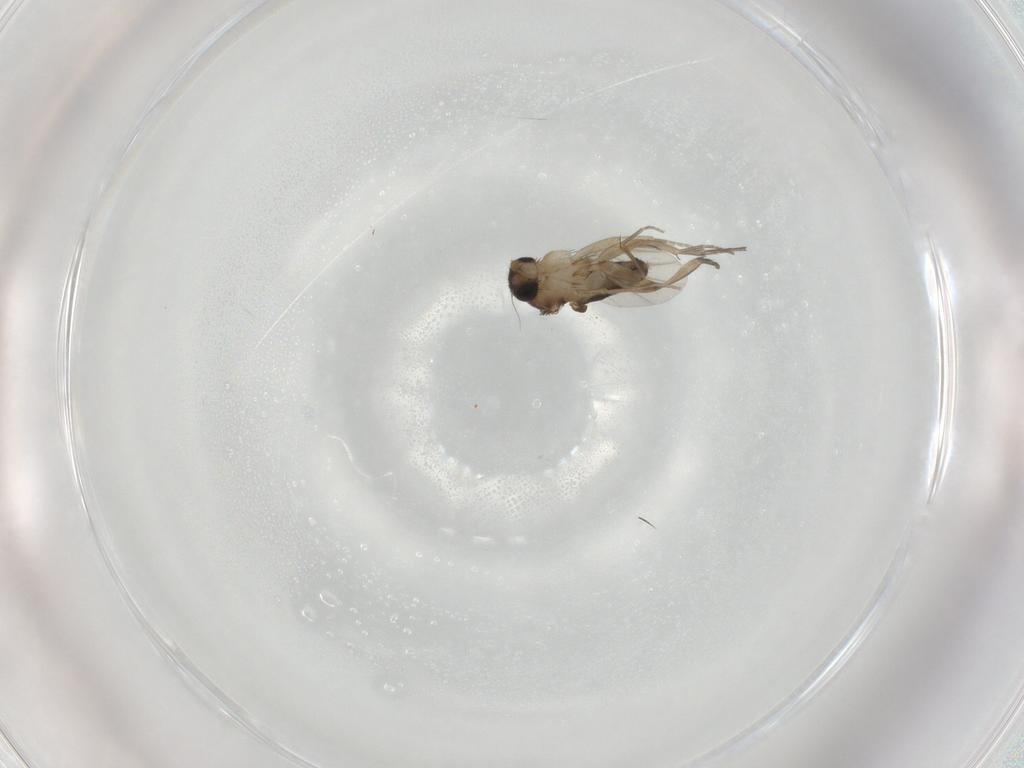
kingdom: Animalia
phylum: Arthropoda
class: Insecta
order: Diptera
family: Phoridae
